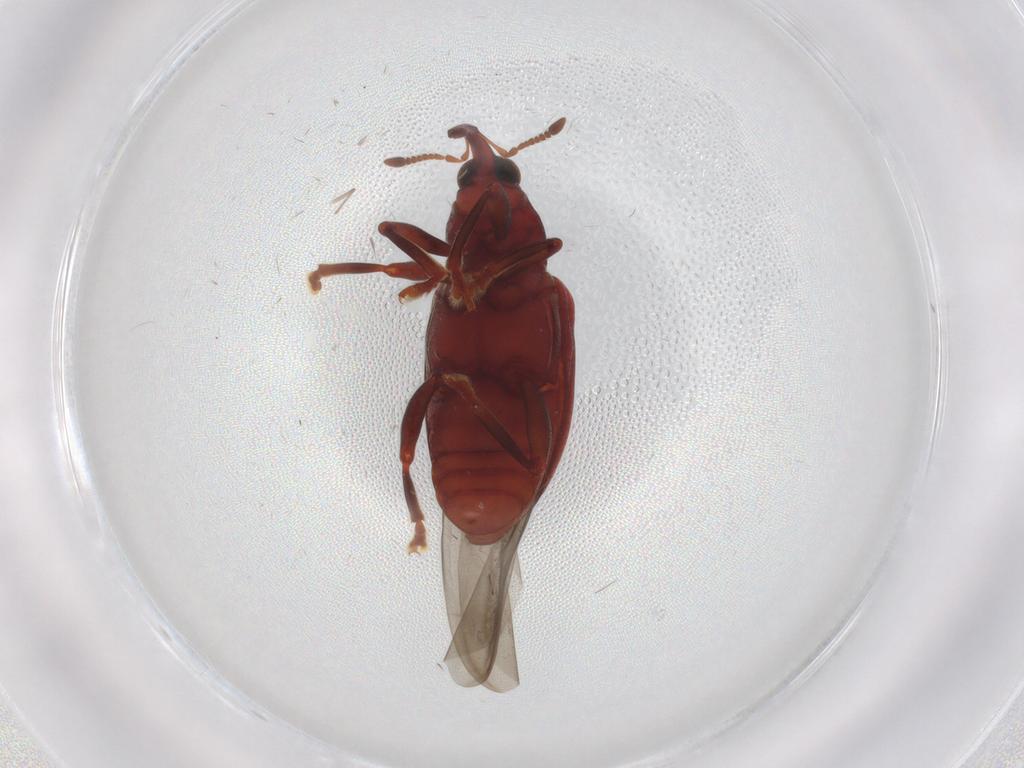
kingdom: Animalia
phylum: Arthropoda
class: Insecta
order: Coleoptera
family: Curculionidae
